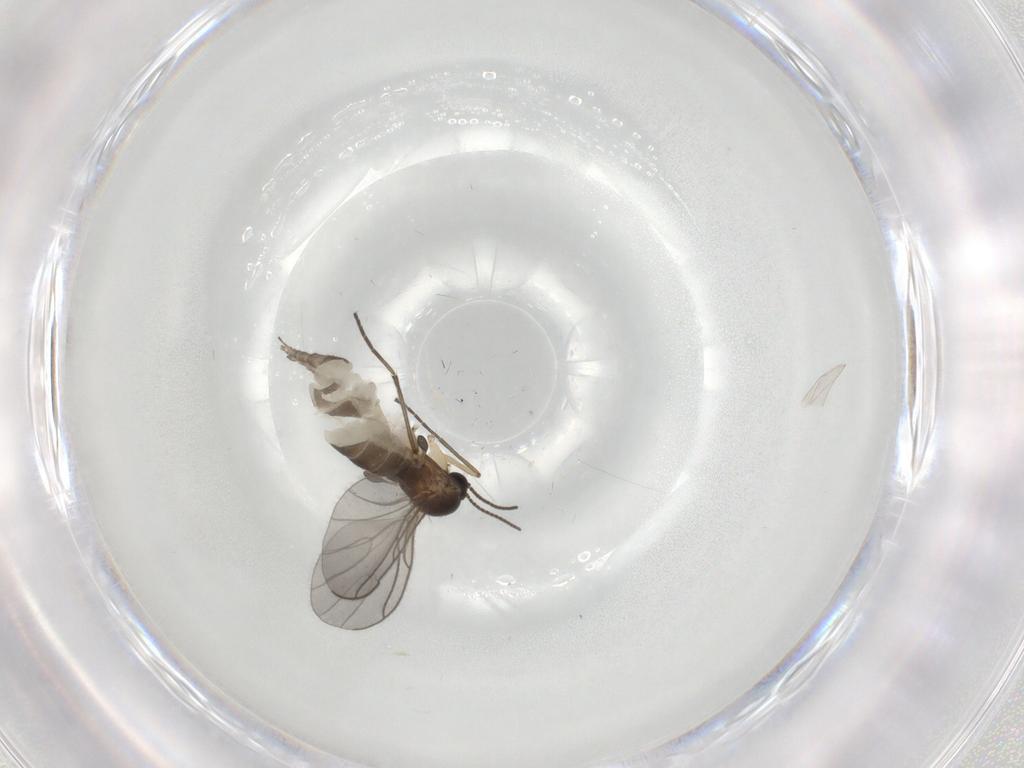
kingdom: Animalia
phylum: Arthropoda
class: Insecta
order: Diptera
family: Sciaridae
